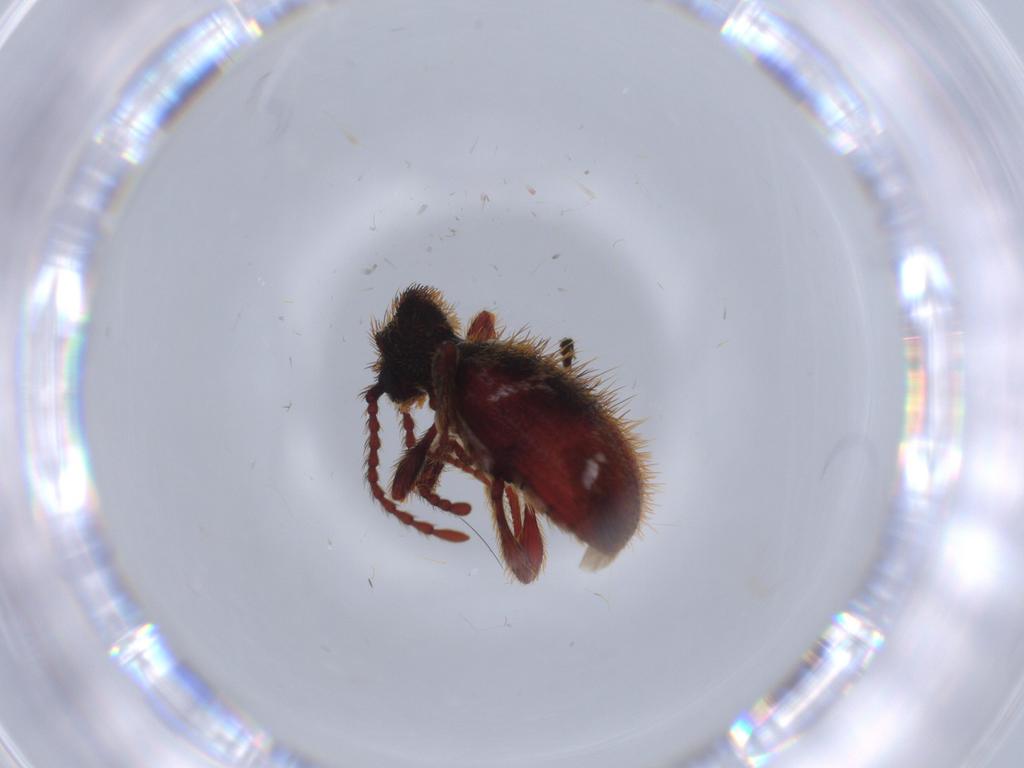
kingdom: Animalia
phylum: Arthropoda
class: Insecta
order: Coleoptera
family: Ptinidae
